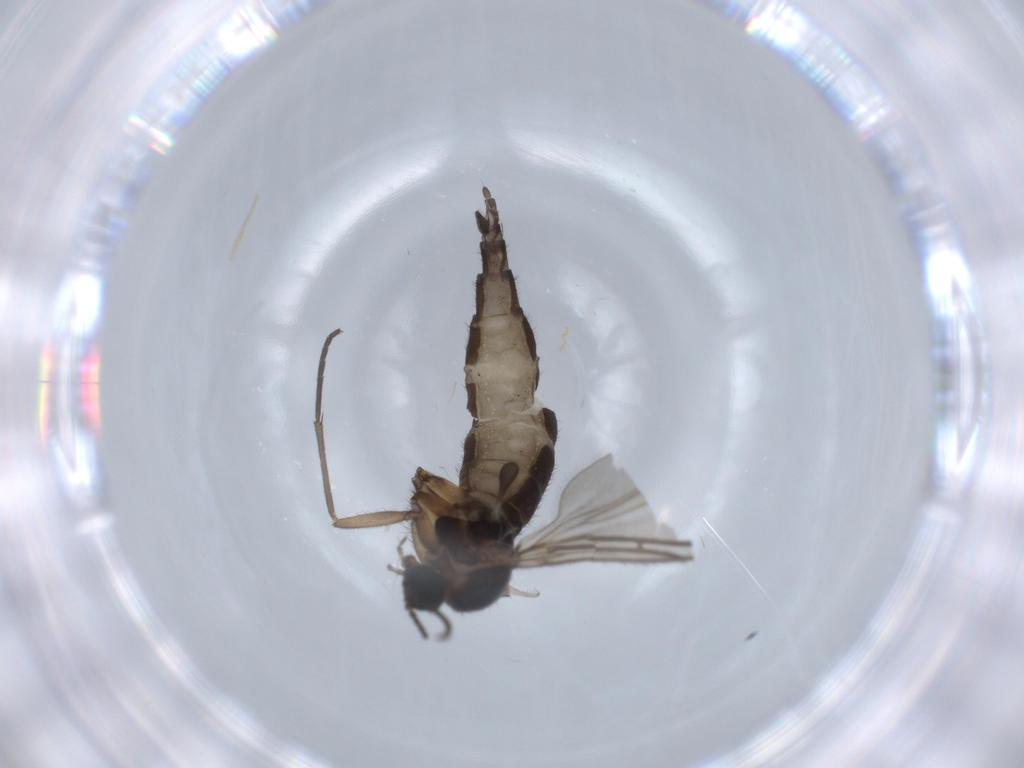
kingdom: Animalia
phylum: Arthropoda
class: Insecta
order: Diptera
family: Sciaridae
